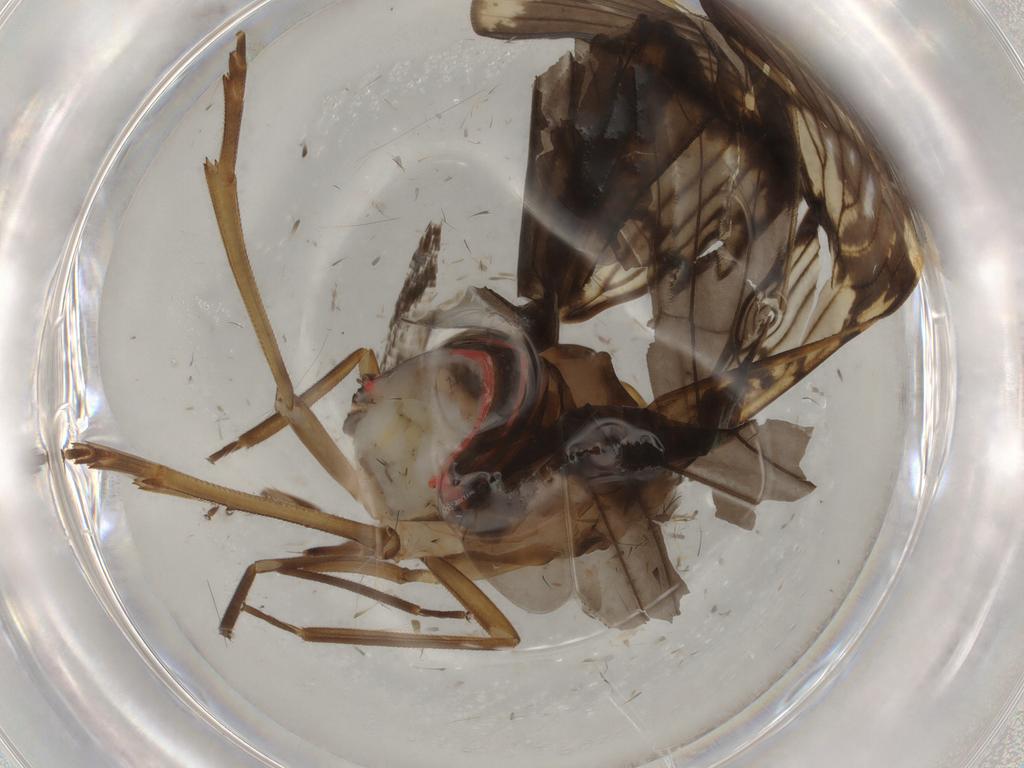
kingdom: Animalia
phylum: Arthropoda
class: Insecta
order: Hemiptera
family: Cixiidae
